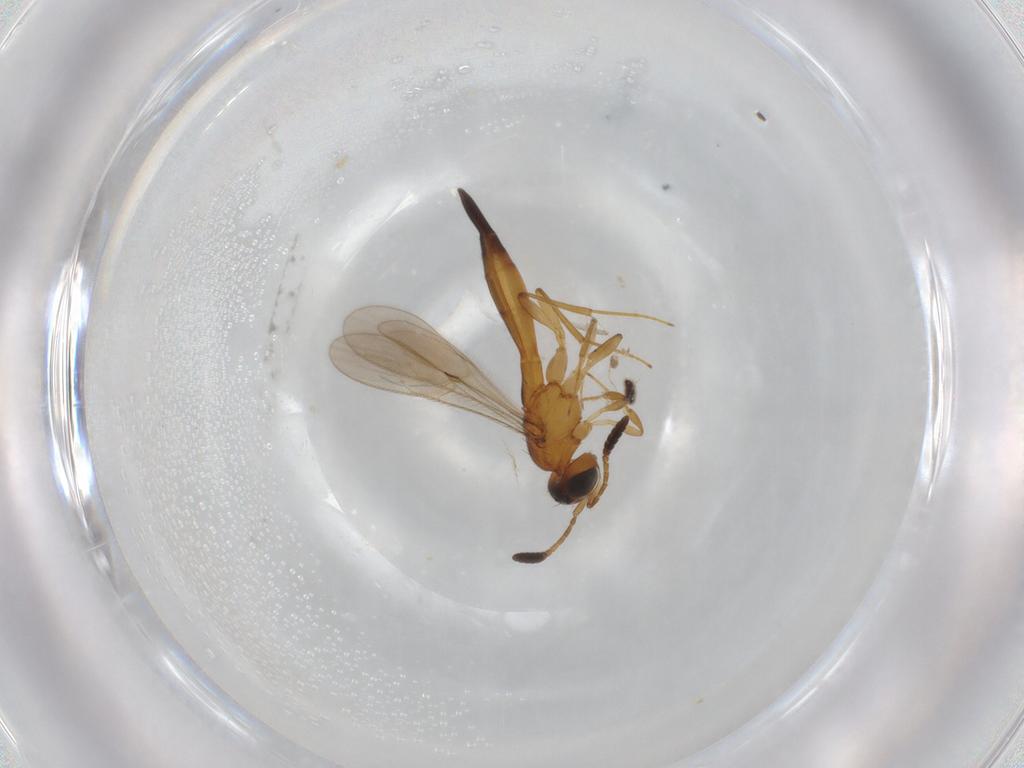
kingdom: Animalia
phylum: Arthropoda
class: Insecta
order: Diptera
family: Sciaridae
